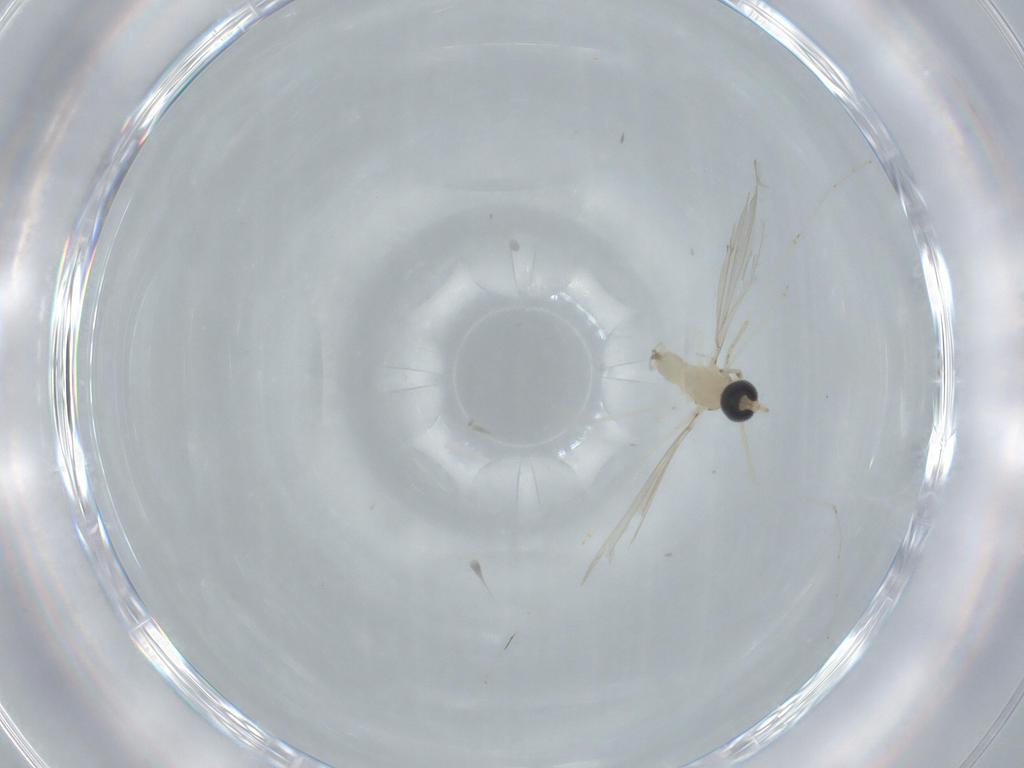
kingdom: Animalia
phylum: Arthropoda
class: Insecta
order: Diptera
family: Cecidomyiidae
